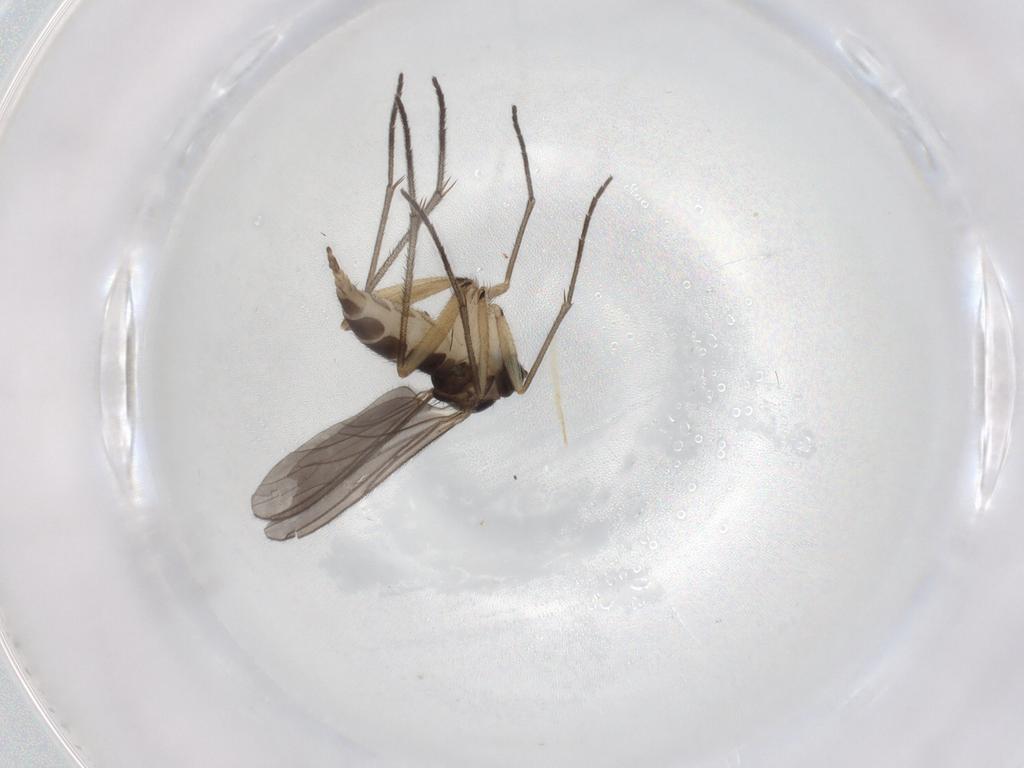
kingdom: Animalia
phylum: Arthropoda
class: Insecta
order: Diptera
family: Sciaridae
